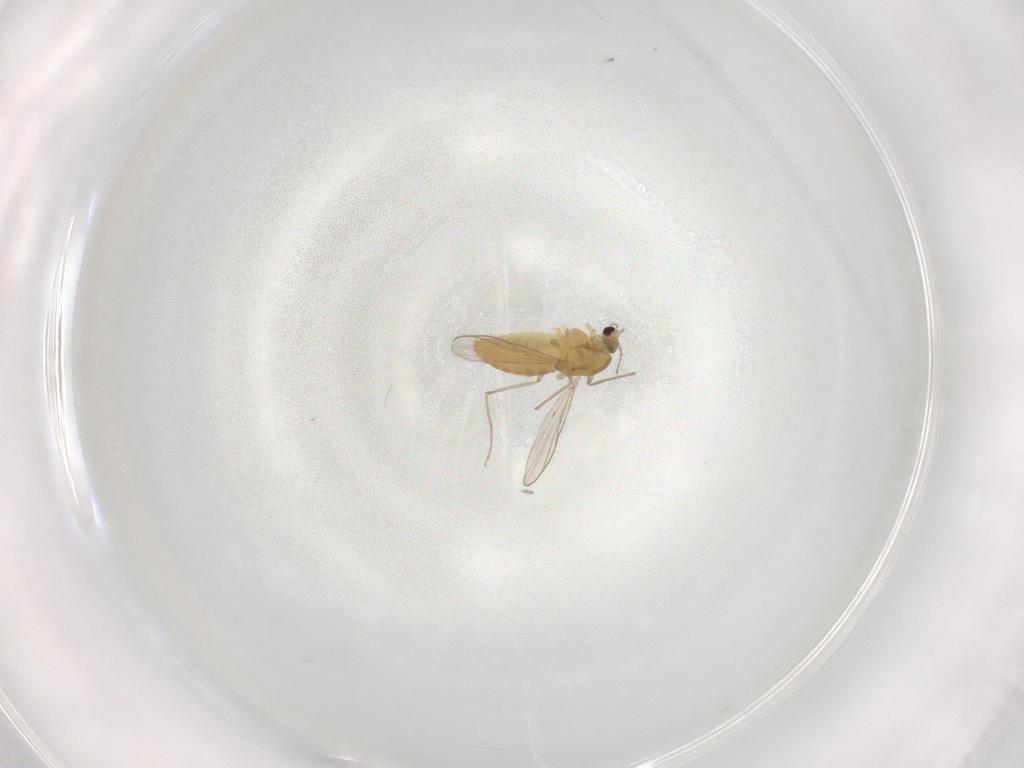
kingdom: Animalia
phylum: Arthropoda
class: Insecta
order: Diptera
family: Chironomidae
